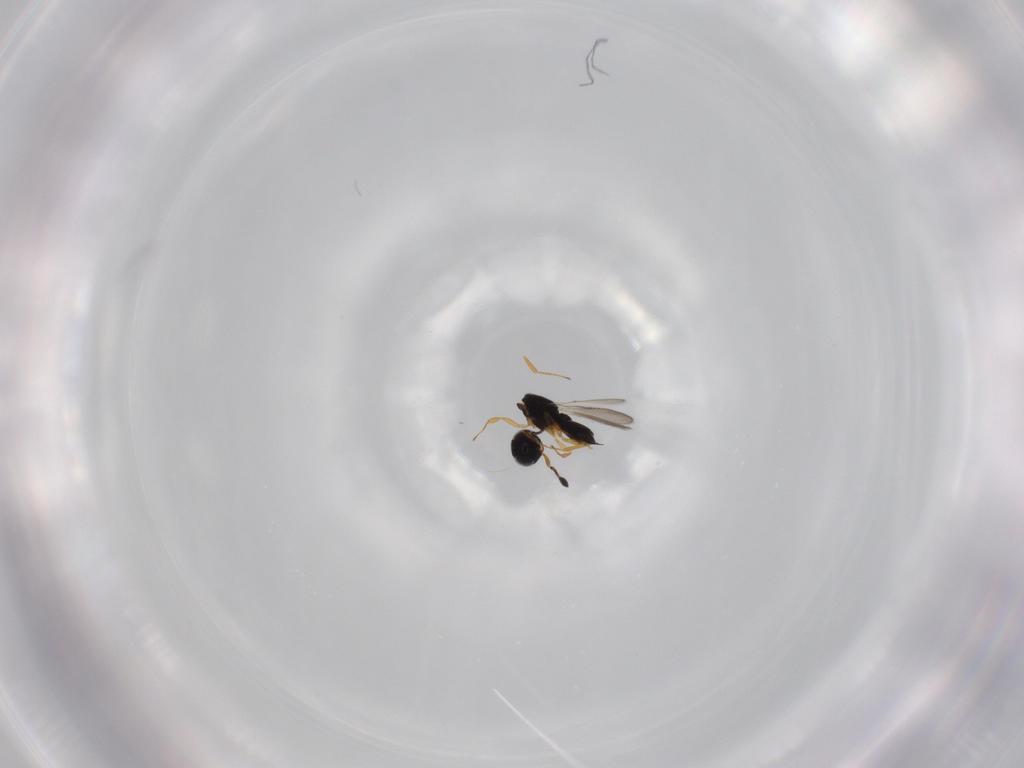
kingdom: Animalia
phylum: Arthropoda
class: Insecta
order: Hymenoptera
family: Scelionidae
